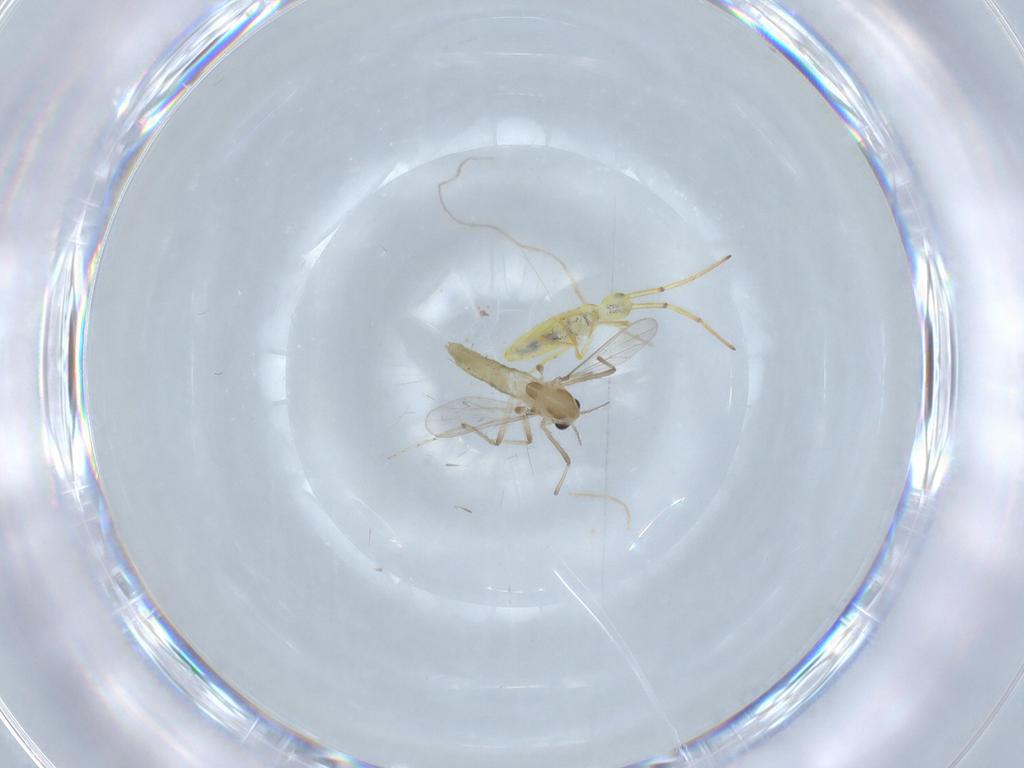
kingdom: Animalia
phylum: Arthropoda
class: Insecta
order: Diptera
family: Chironomidae
